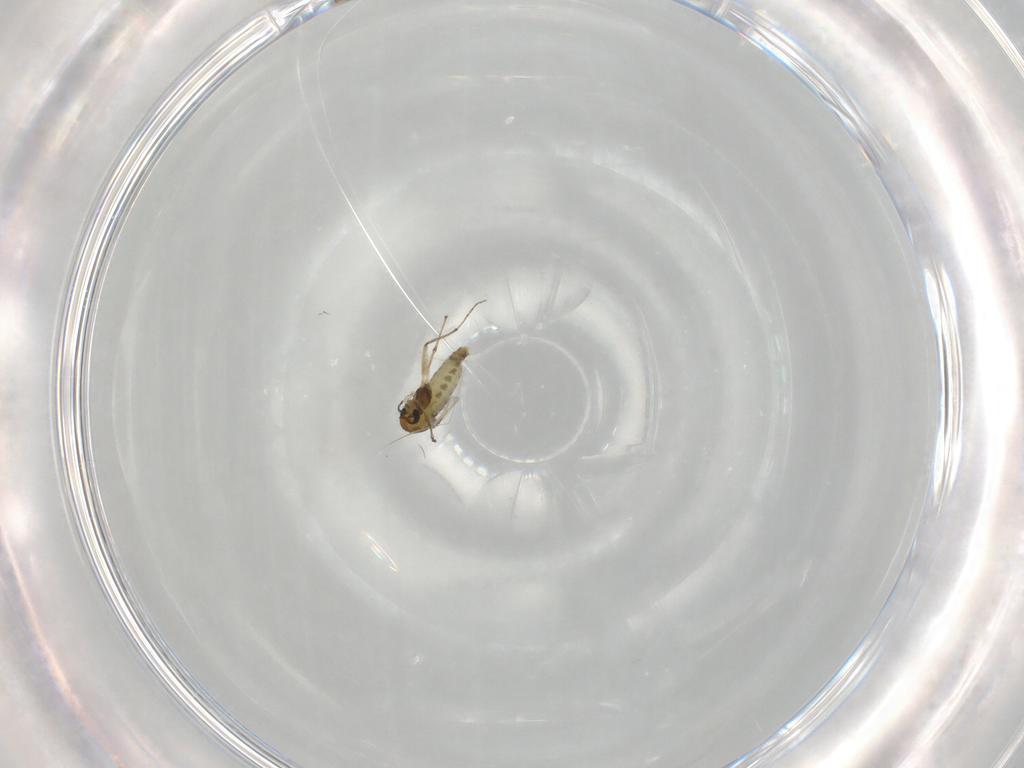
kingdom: Animalia
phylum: Arthropoda
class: Insecta
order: Diptera
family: Chironomidae
